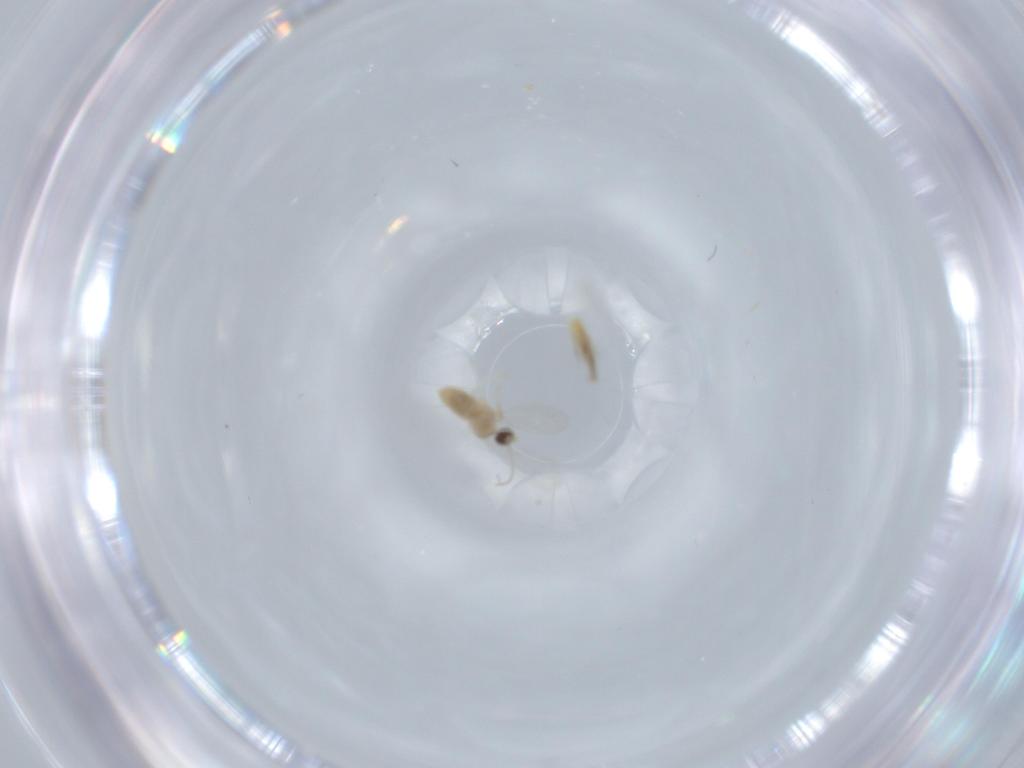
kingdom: Animalia
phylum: Arthropoda
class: Insecta
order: Diptera
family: Cecidomyiidae
